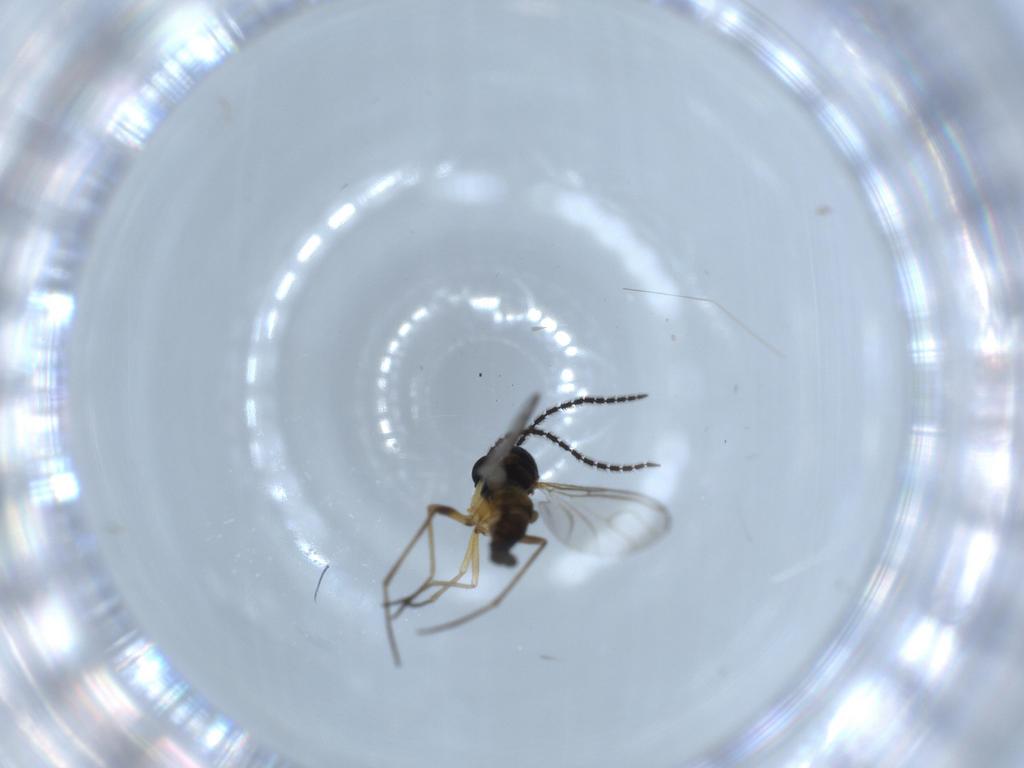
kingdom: Animalia
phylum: Arthropoda
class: Insecta
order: Diptera
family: Sciaridae
